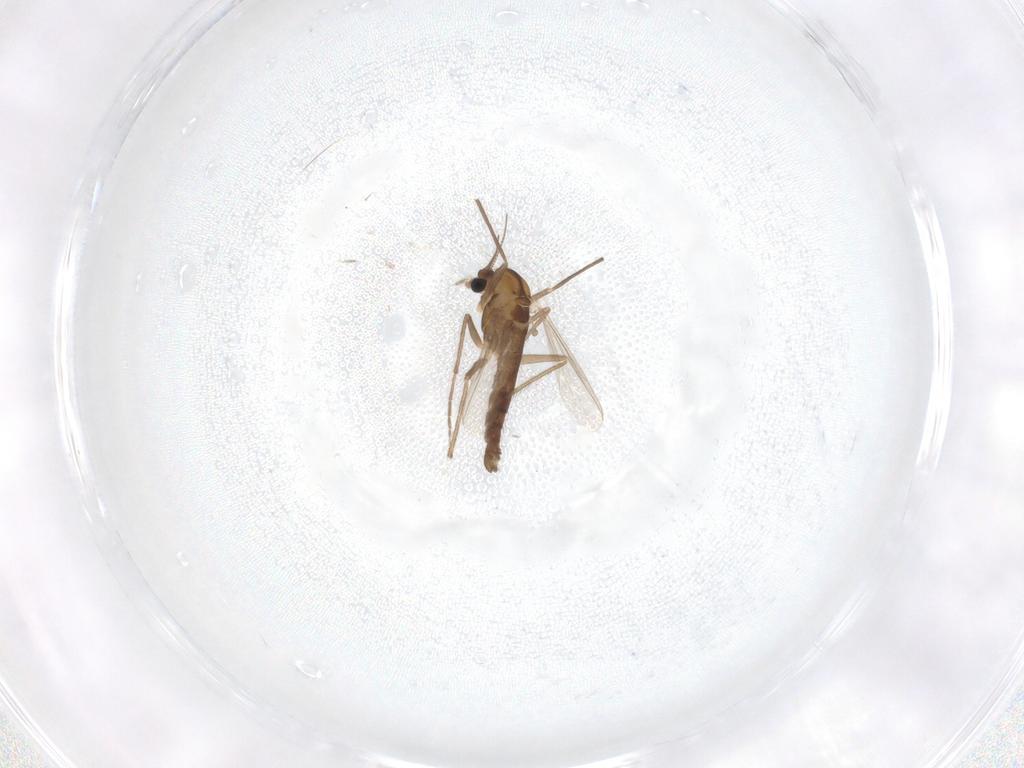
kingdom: Animalia
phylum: Arthropoda
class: Insecta
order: Diptera
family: Chironomidae
